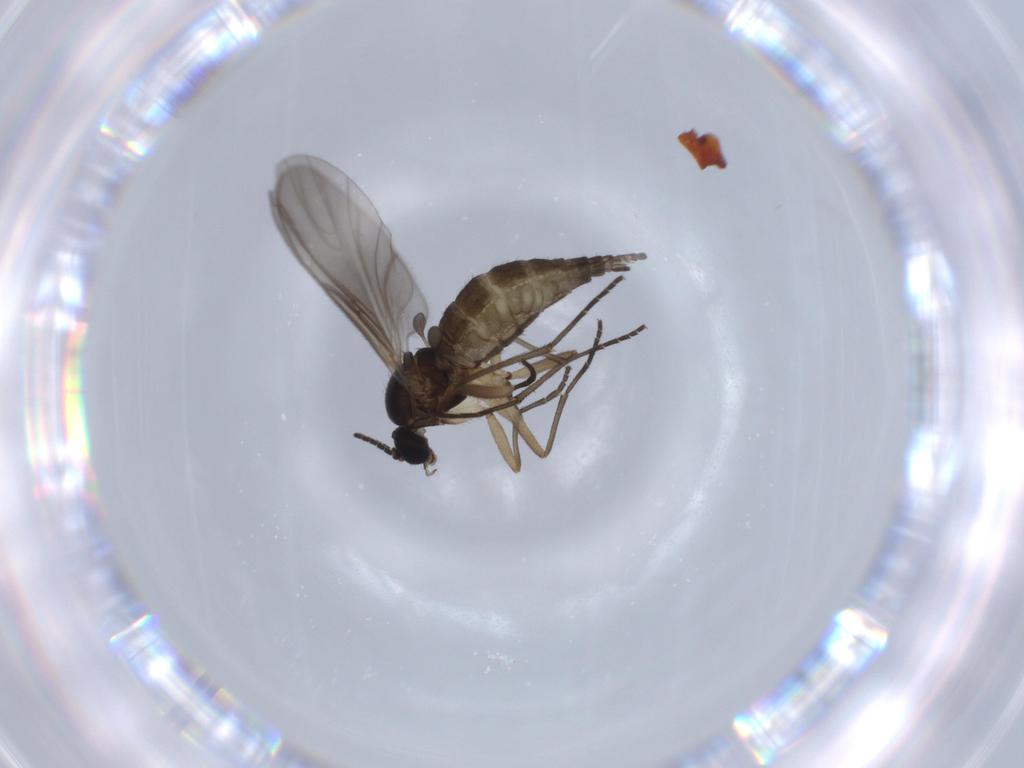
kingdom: Animalia
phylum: Arthropoda
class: Insecta
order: Diptera
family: Sciaridae
